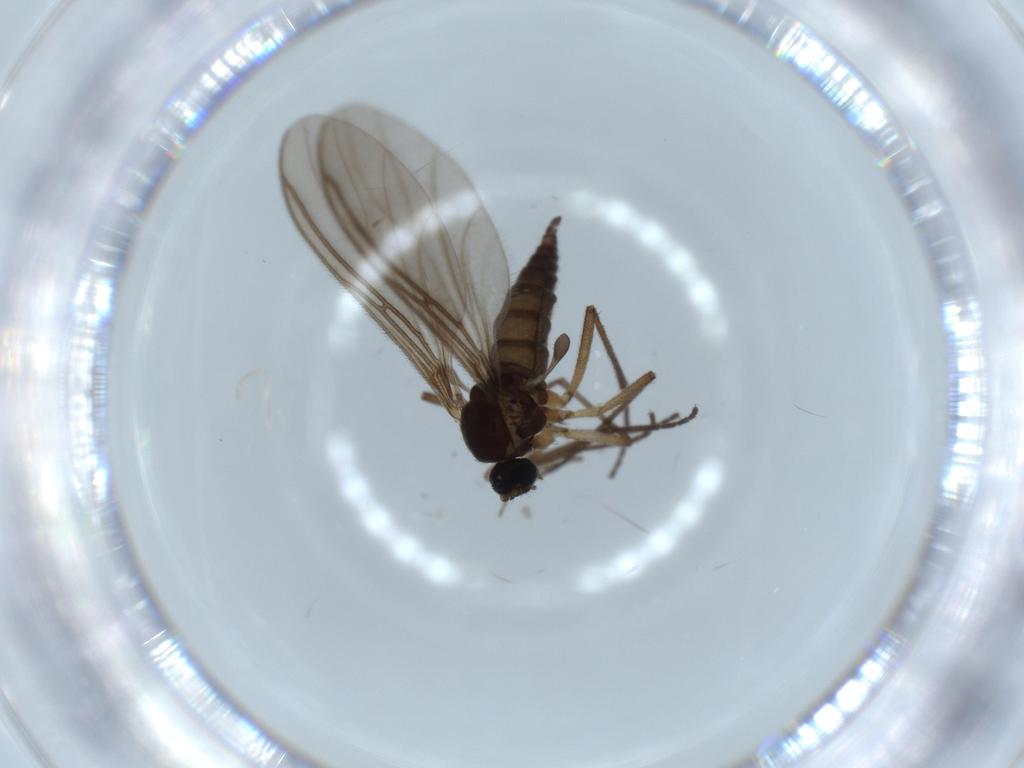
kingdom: Animalia
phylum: Arthropoda
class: Insecta
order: Diptera
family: Sciaridae
